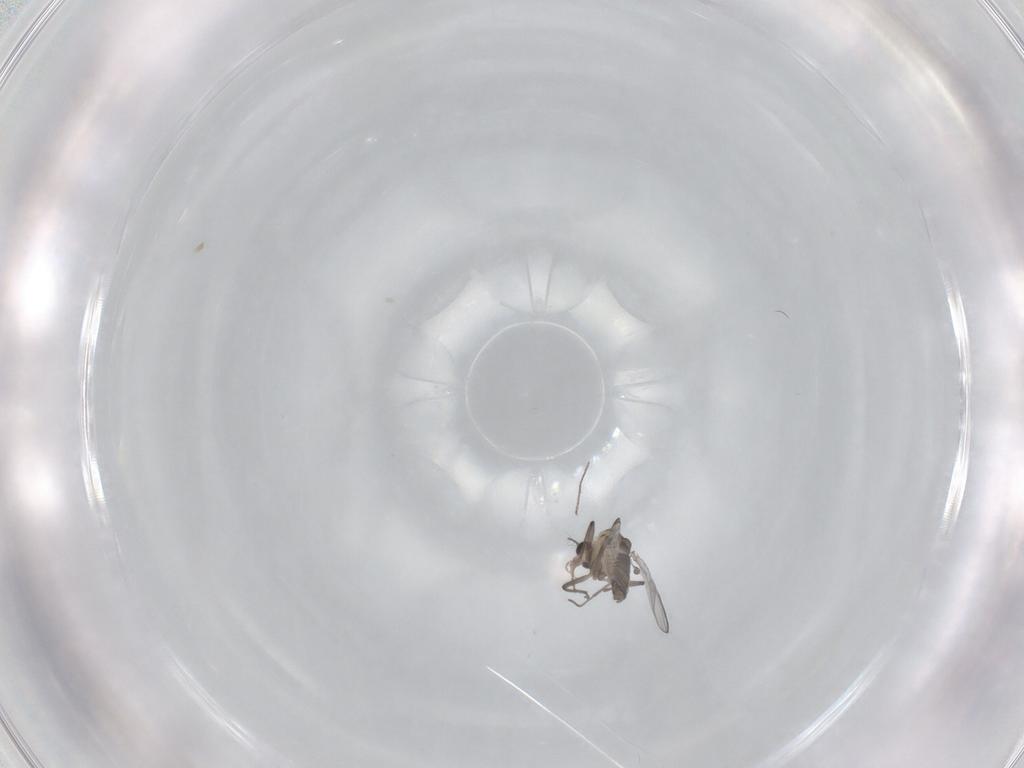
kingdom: Animalia
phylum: Arthropoda
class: Insecta
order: Diptera
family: Chironomidae
